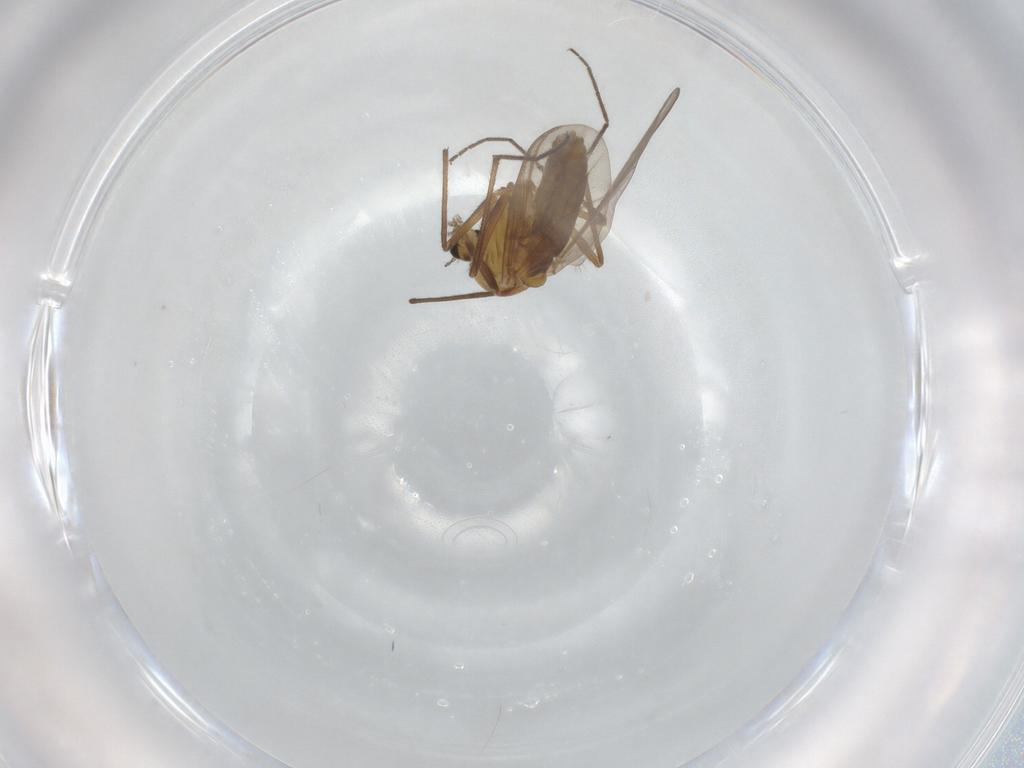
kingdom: Animalia
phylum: Arthropoda
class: Insecta
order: Diptera
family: Chironomidae
